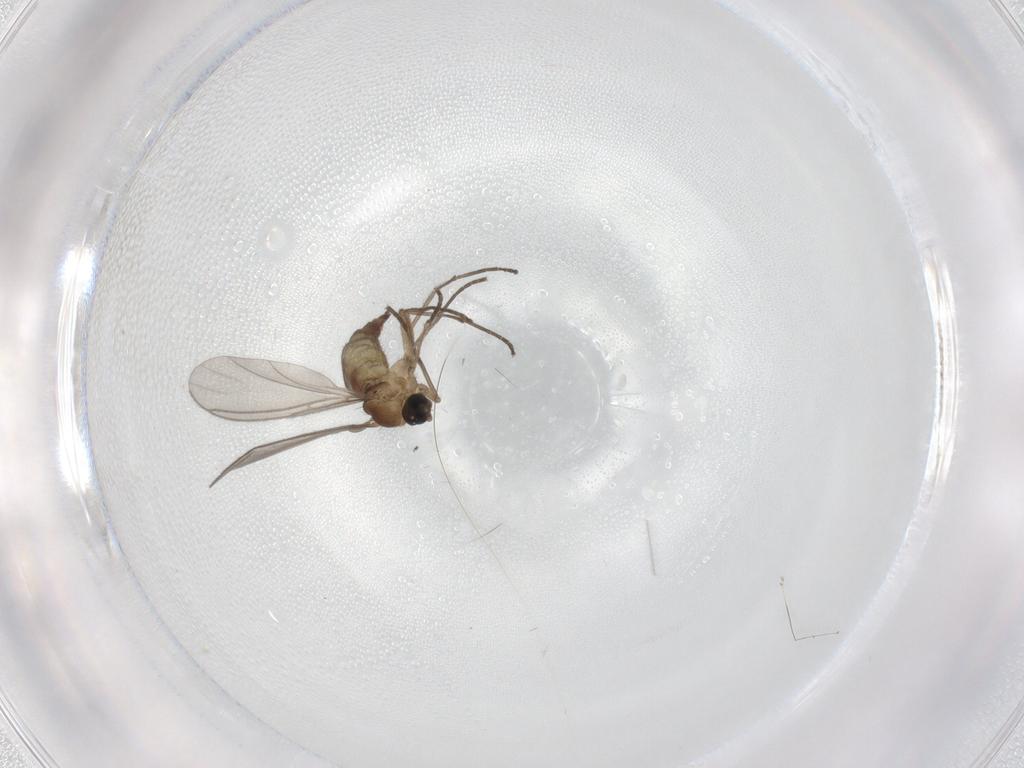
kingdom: Animalia
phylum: Arthropoda
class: Insecta
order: Diptera
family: Sciaridae
